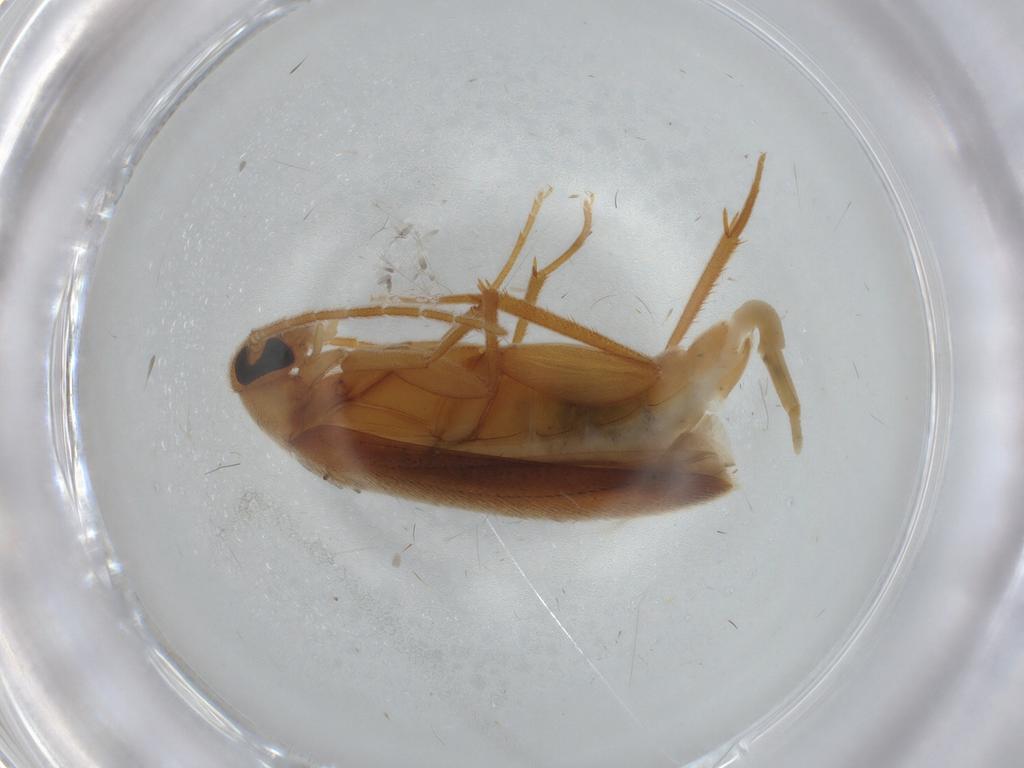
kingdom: Animalia
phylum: Arthropoda
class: Insecta
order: Coleoptera
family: Scraptiidae
